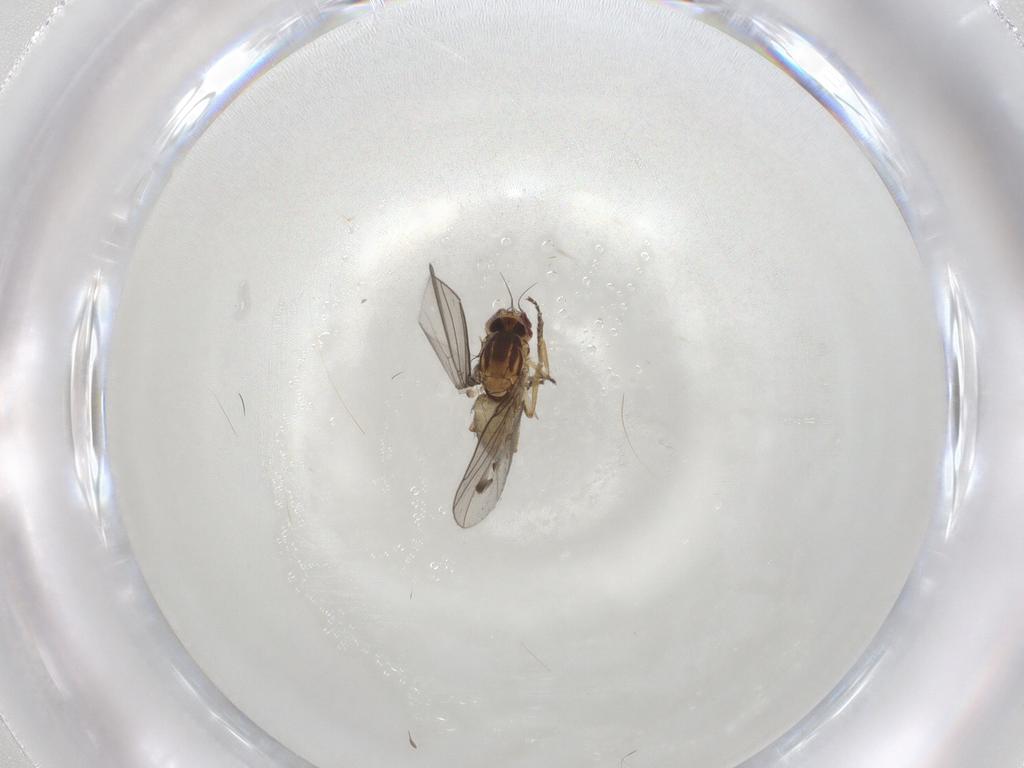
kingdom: Animalia
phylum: Arthropoda
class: Insecta
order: Diptera
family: Agromyzidae
